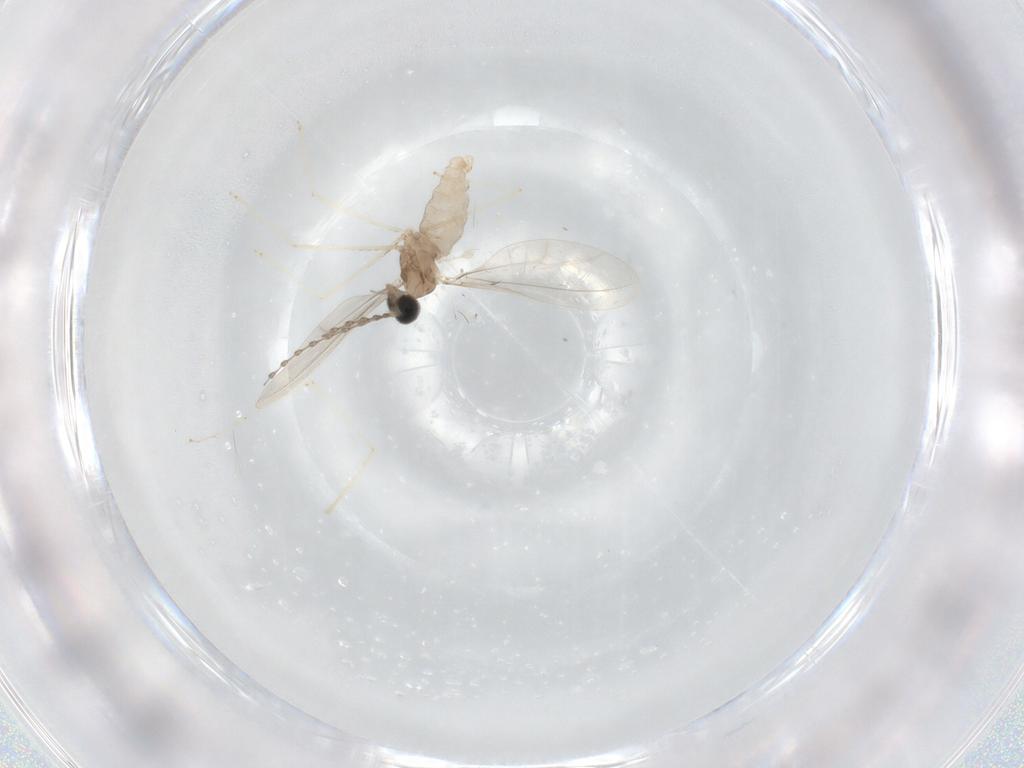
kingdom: Animalia
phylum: Arthropoda
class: Insecta
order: Diptera
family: Cecidomyiidae
